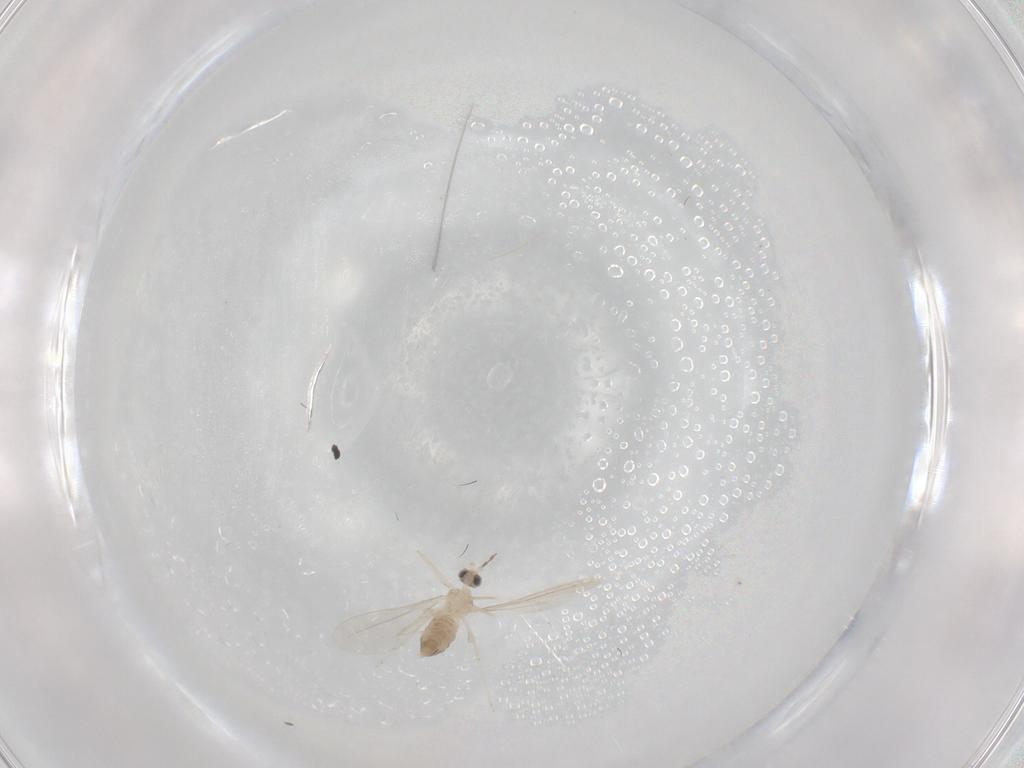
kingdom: Animalia
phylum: Arthropoda
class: Insecta
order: Diptera
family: Cecidomyiidae
